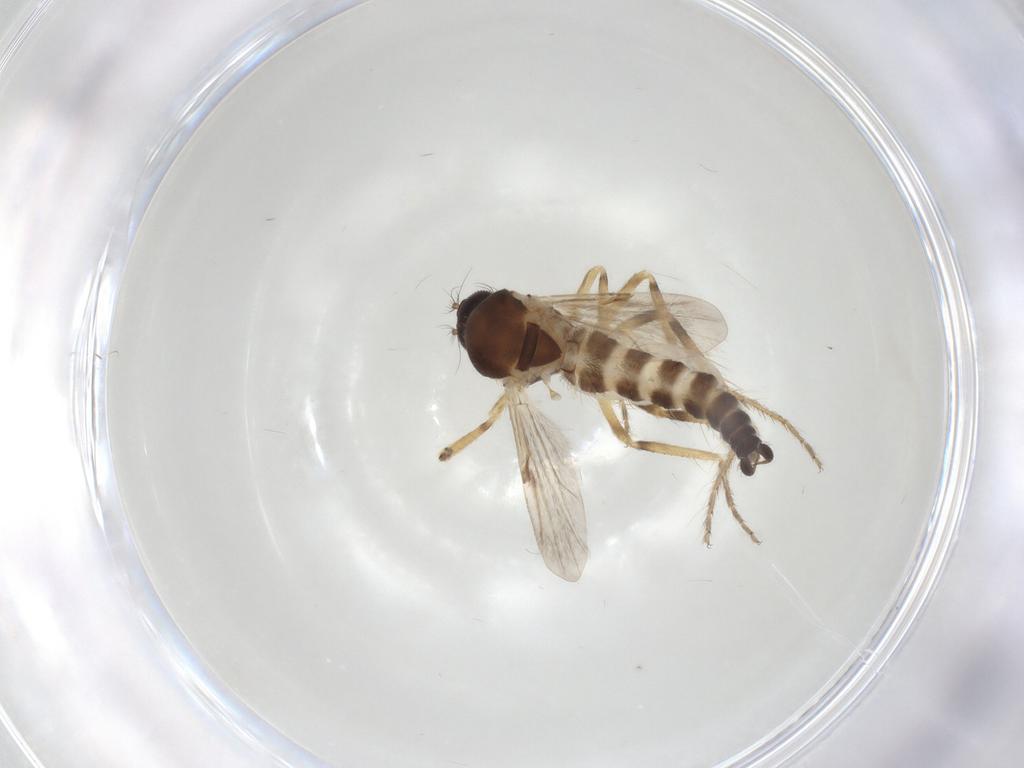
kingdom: Animalia
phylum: Arthropoda
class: Insecta
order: Diptera
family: Ceratopogonidae
